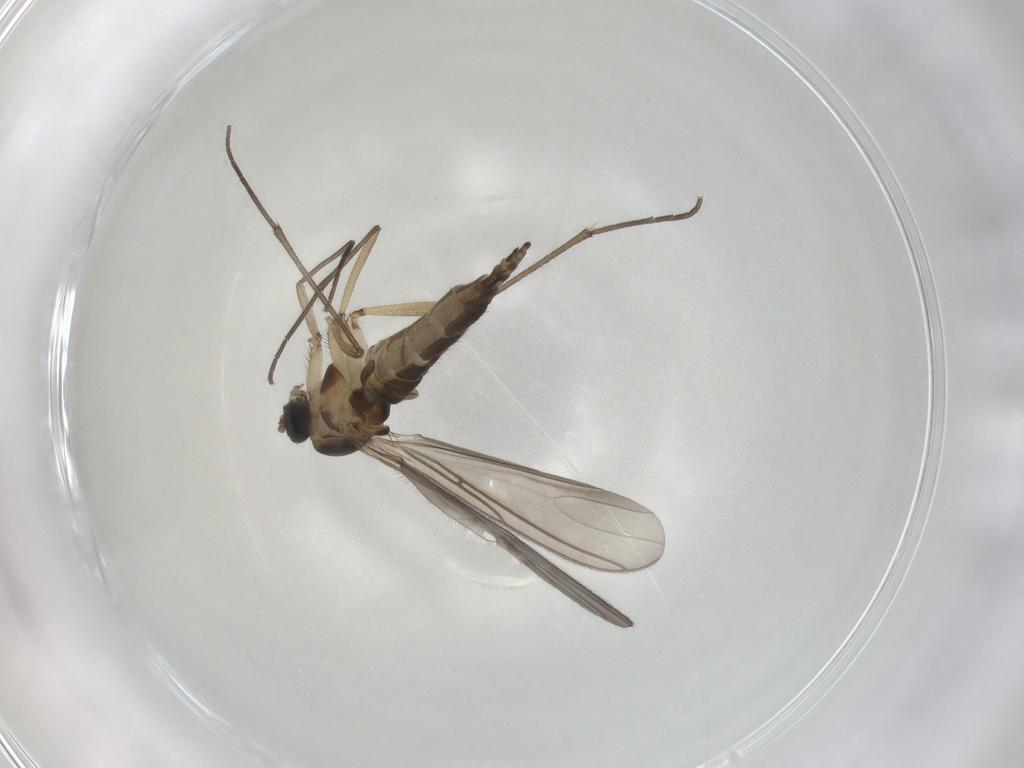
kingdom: Animalia
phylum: Arthropoda
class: Insecta
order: Diptera
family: Sciaridae
